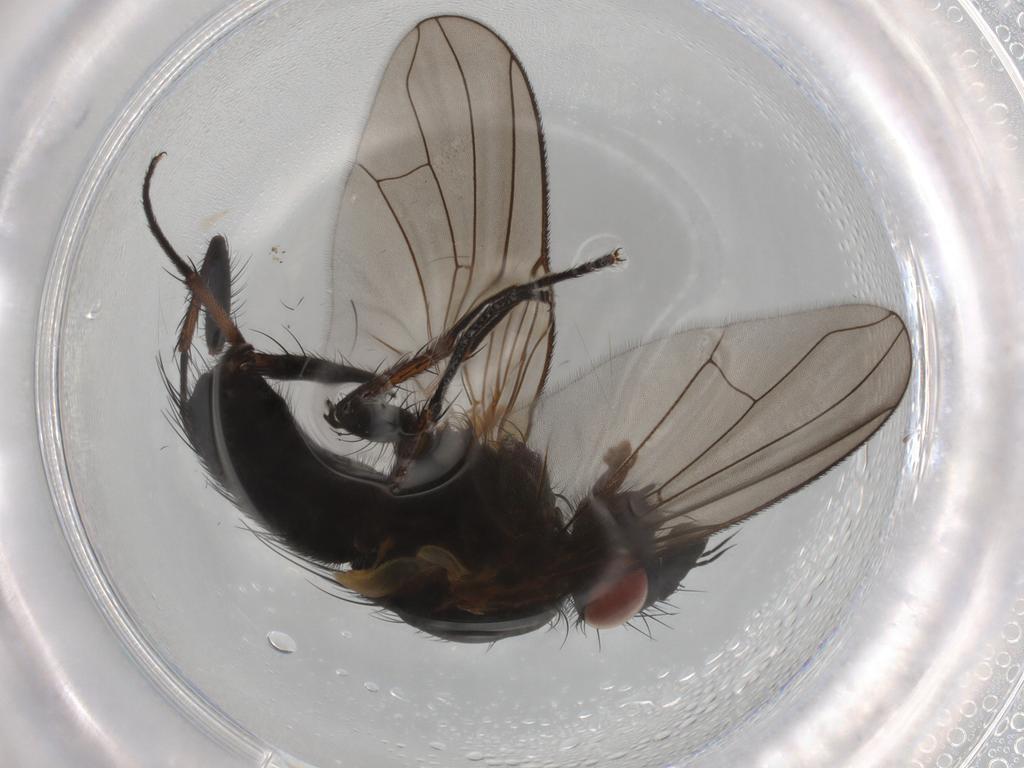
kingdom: Animalia
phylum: Arthropoda
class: Insecta
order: Diptera
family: Tachinidae
